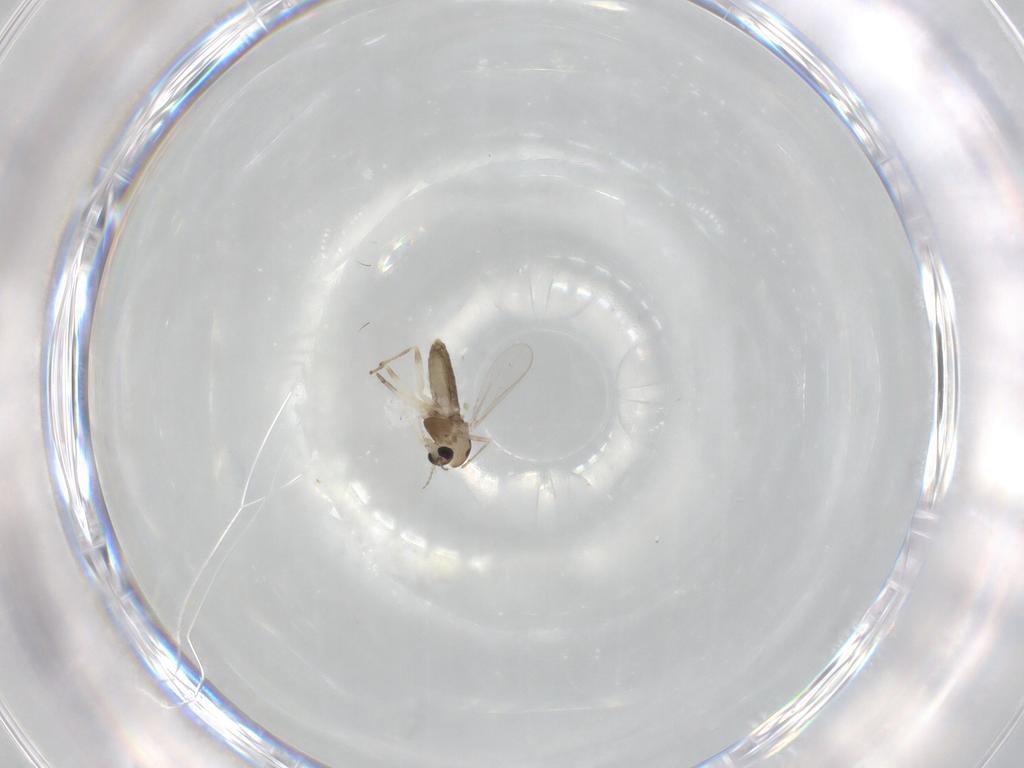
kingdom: Animalia
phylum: Arthropoda
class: Insecta
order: Diptera
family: Chironomidae
